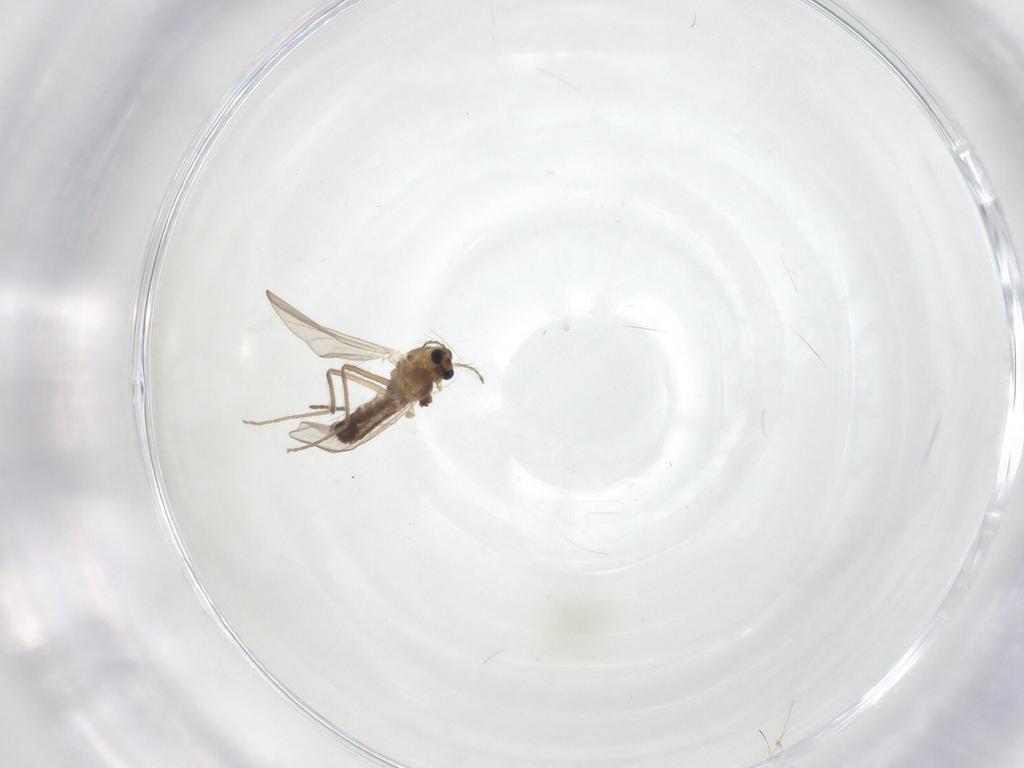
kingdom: Animalia
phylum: Arthropoda
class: Insecta
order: Diptera
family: Chironomidae
